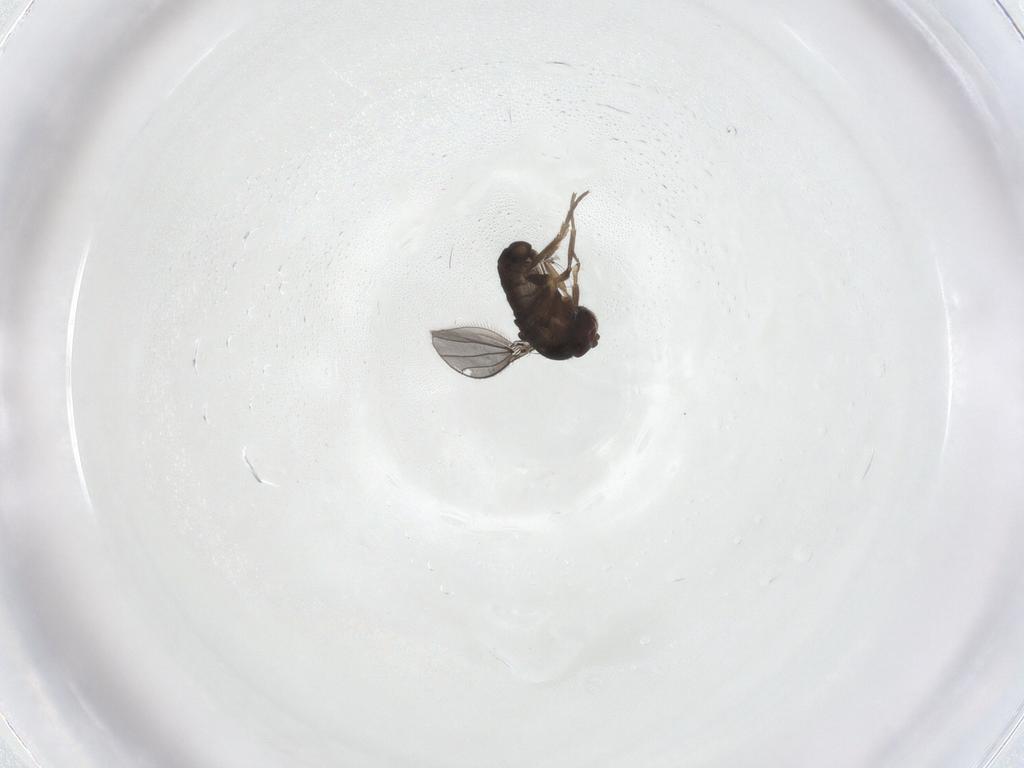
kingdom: Animalia
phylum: Arthropoda
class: Insecta
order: Diptera
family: Dolichopodidae
